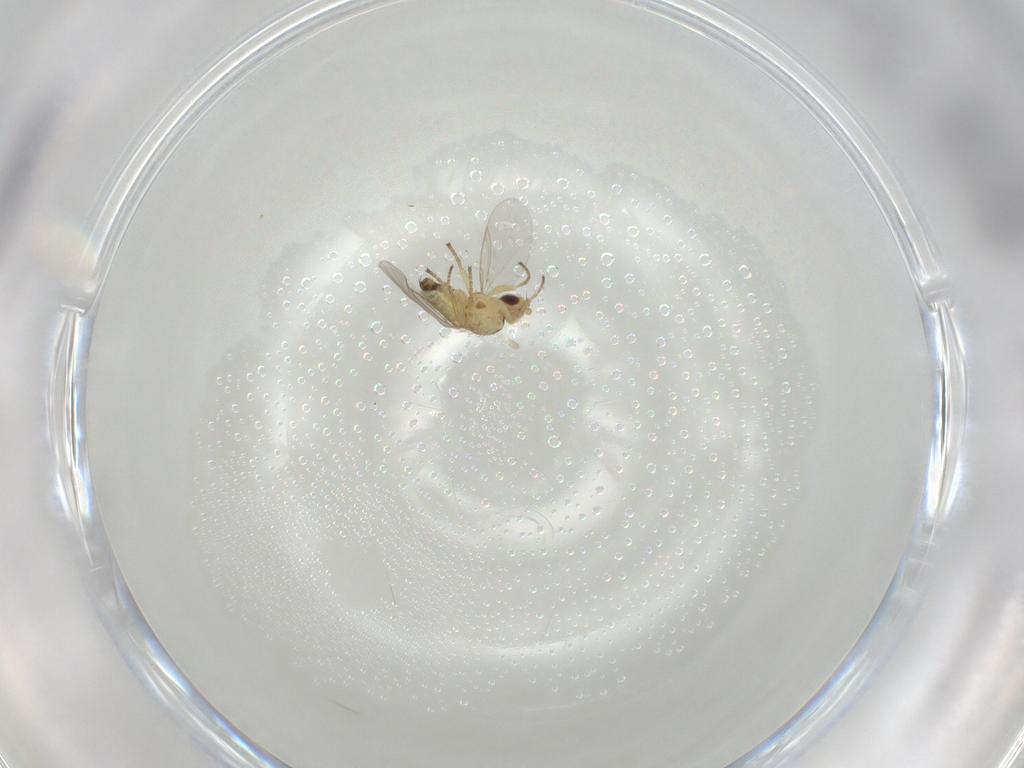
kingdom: Animalia
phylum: Arthropoda
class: Insecta
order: Diptera
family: Agromyzidae
